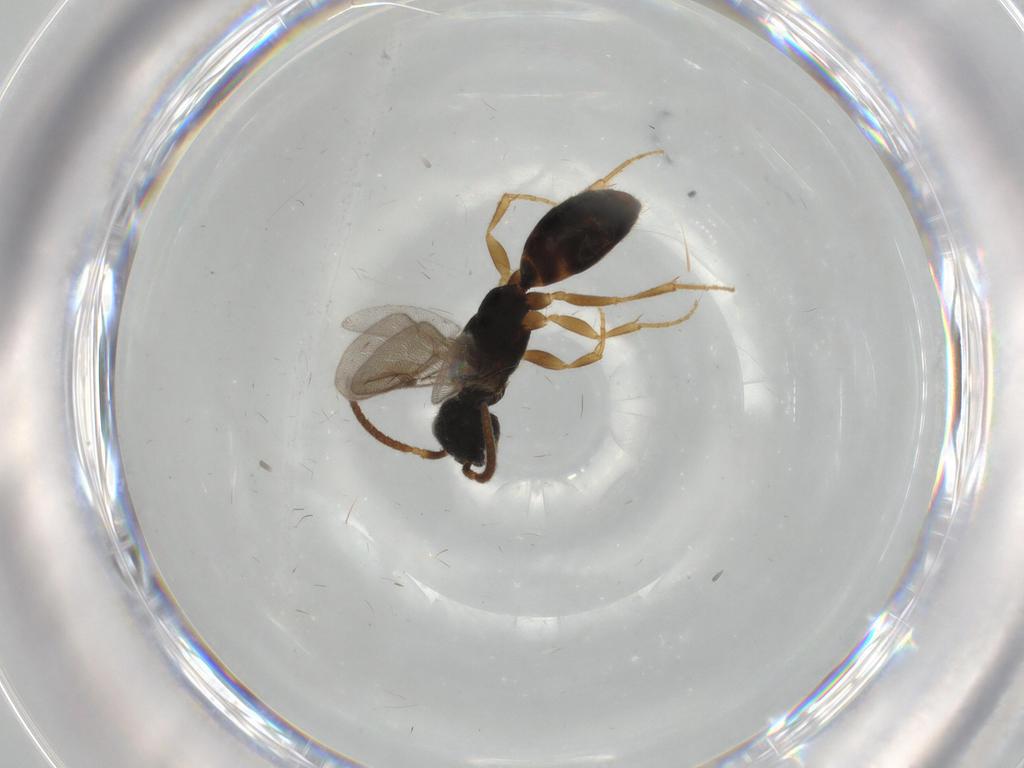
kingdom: Animalia
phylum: Arthropoda
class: Insecta
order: Hymenoptera
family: Bethylidae
